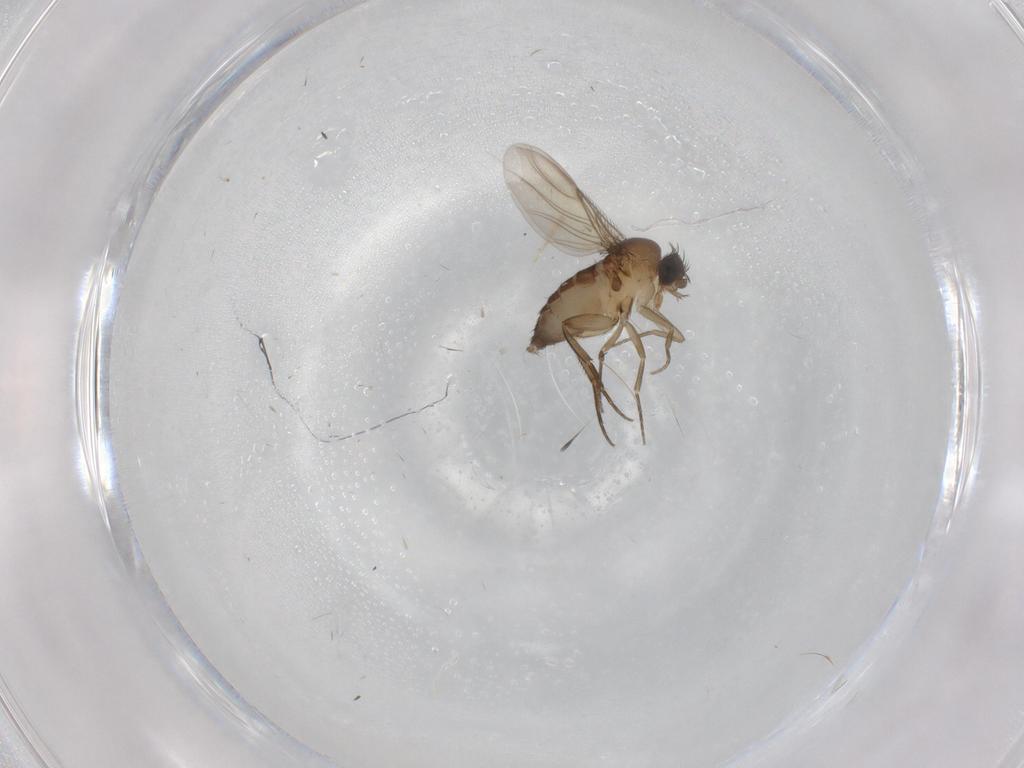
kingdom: Animalia
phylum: Arthropoda
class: Insecta
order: Diptera
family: Phoridae
